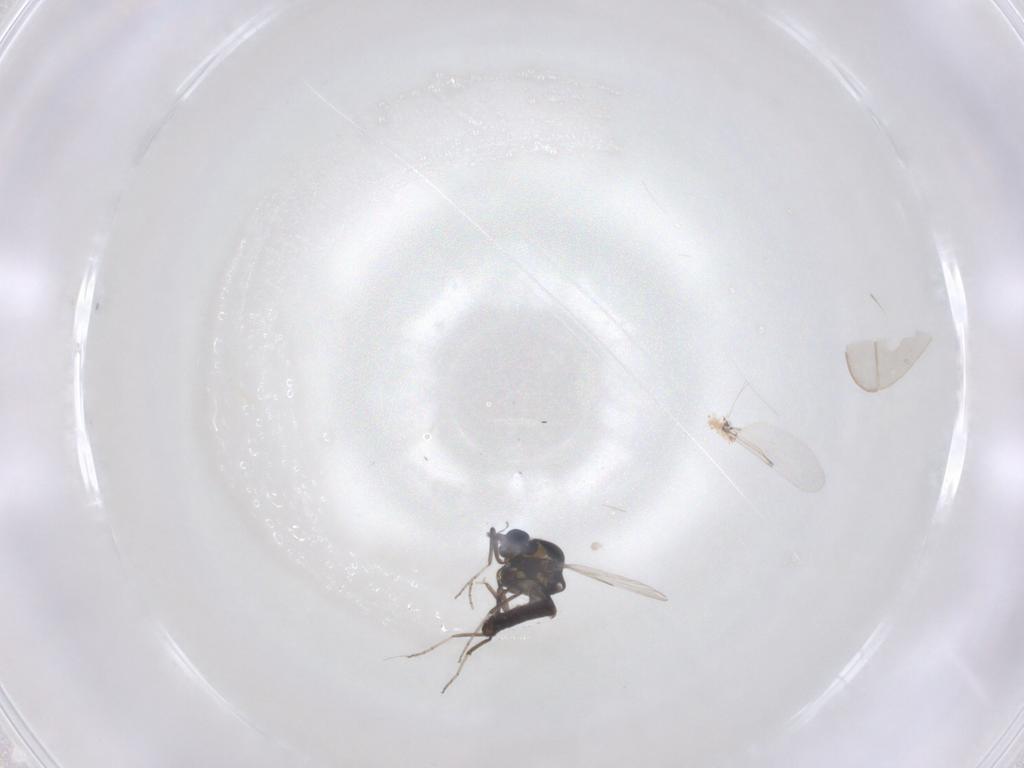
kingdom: Animalia
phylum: Arthropoda
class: Insecta
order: Diptera
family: Ceratopogonidae
